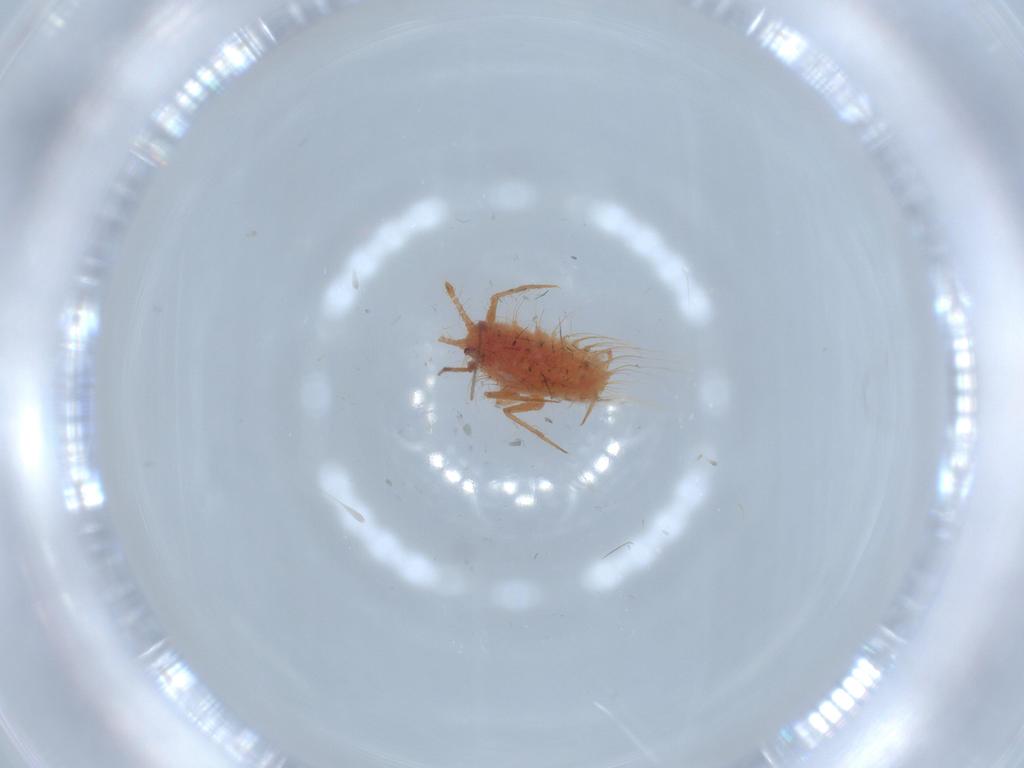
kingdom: Animalia
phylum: Arthropoda
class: Insecta
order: Hemiptera
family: Monophlebidae
